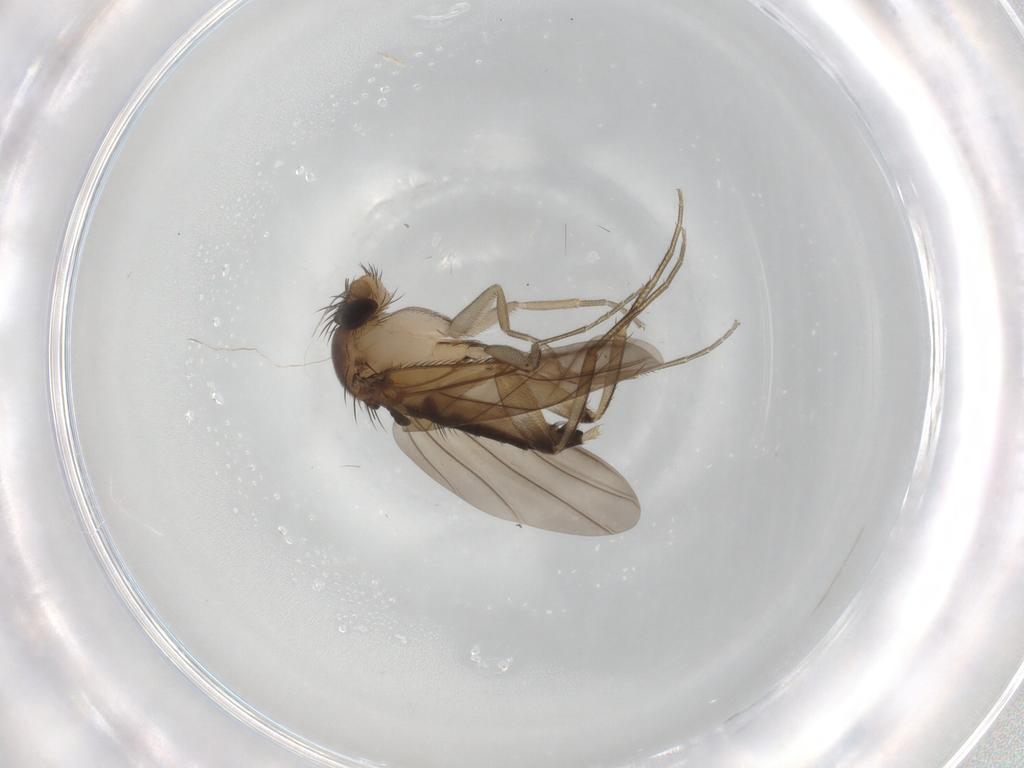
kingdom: Animalia
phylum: Arthropoda
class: Insecta
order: Diptera
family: Phoridae
